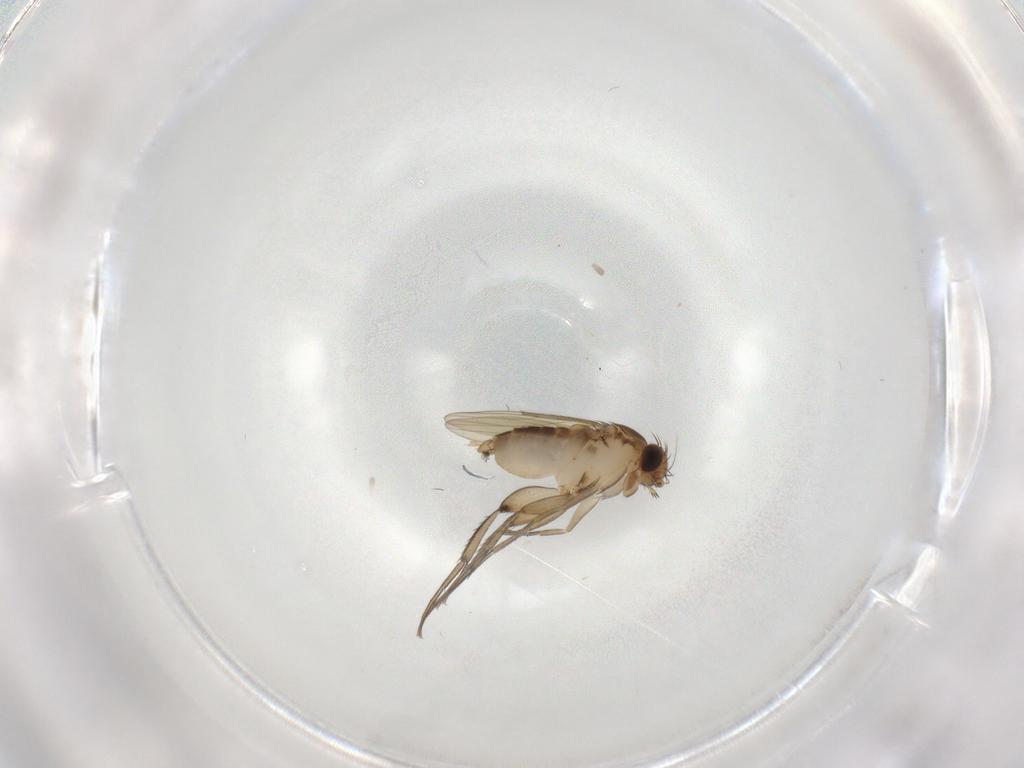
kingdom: Animalia
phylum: Arthropoda
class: Insecta
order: Diptera
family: Phoridae
